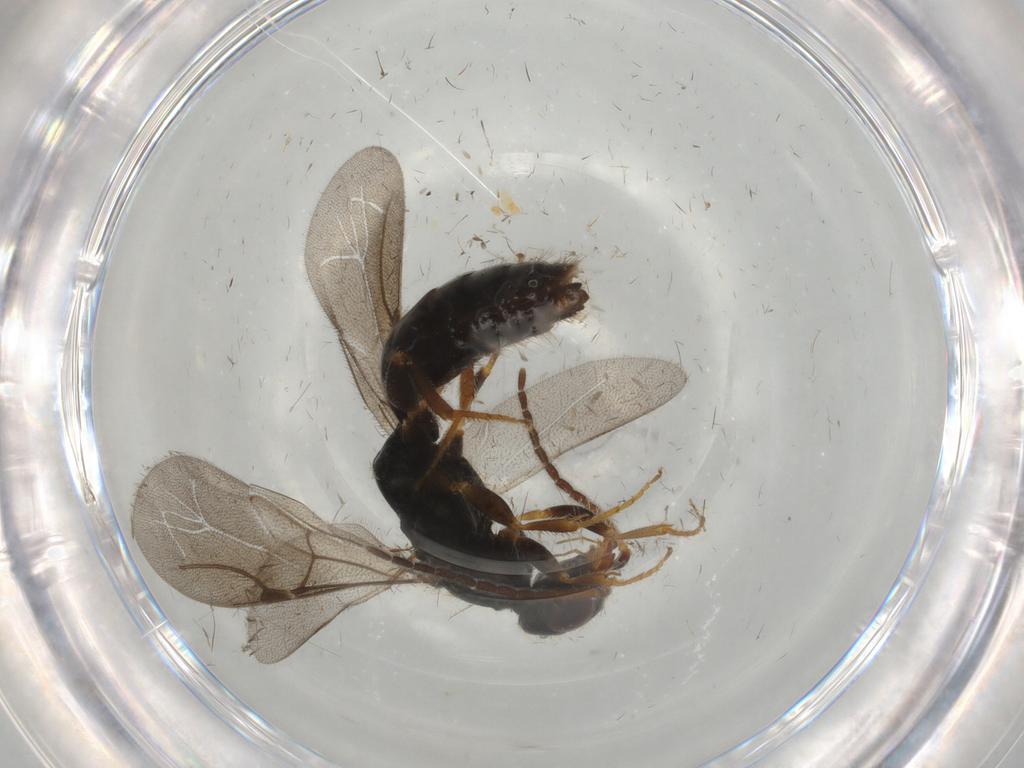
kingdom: Animalia
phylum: Arthropoda
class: Insecta
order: Hymenoptera
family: Bethylidae
